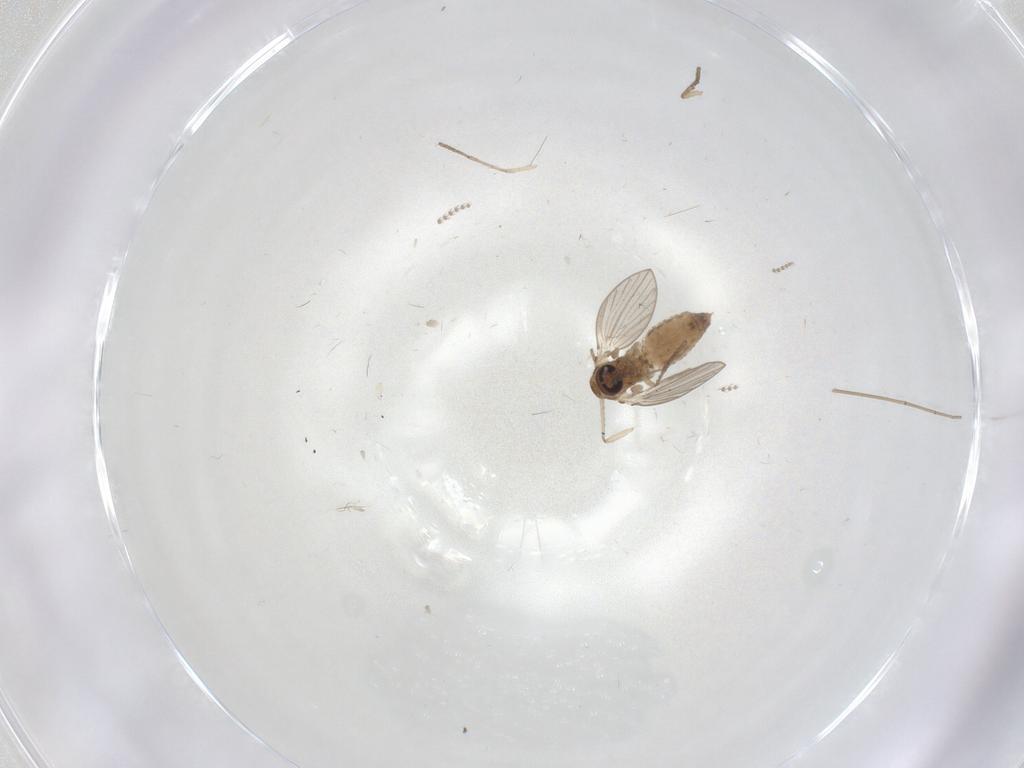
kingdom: Animalia
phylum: Arthropoda
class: Insecta
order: Diptera
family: Psychodidae
